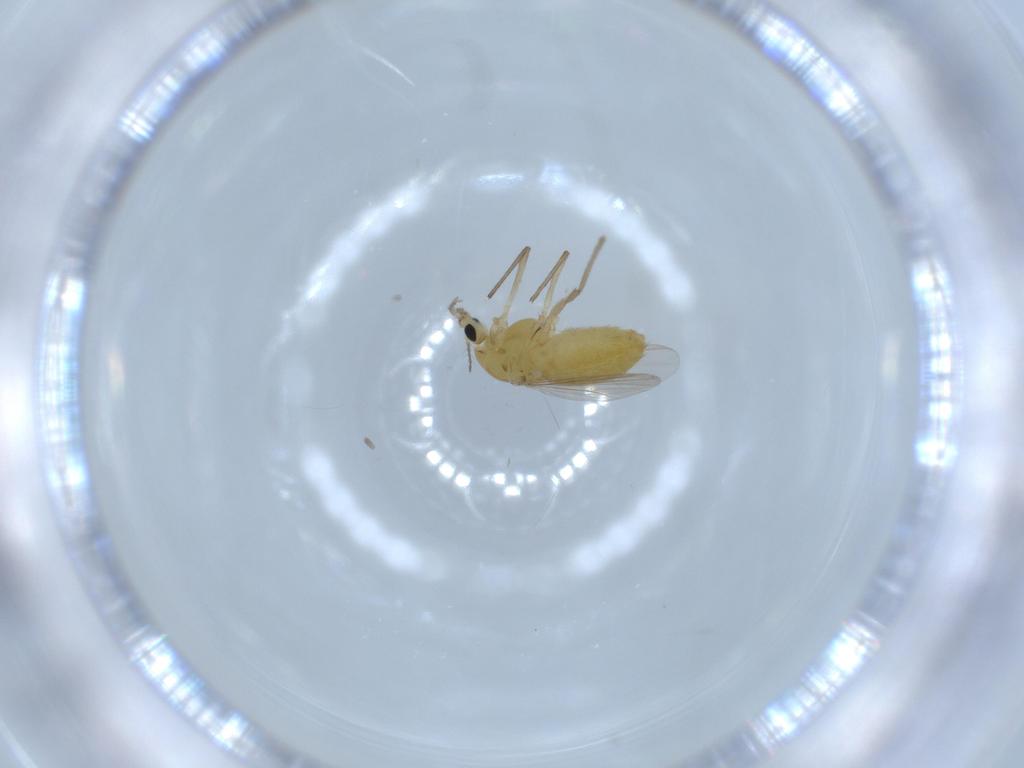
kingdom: Animalia
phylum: Arthropoda
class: Insecta
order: Diptera
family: Chironomidae
